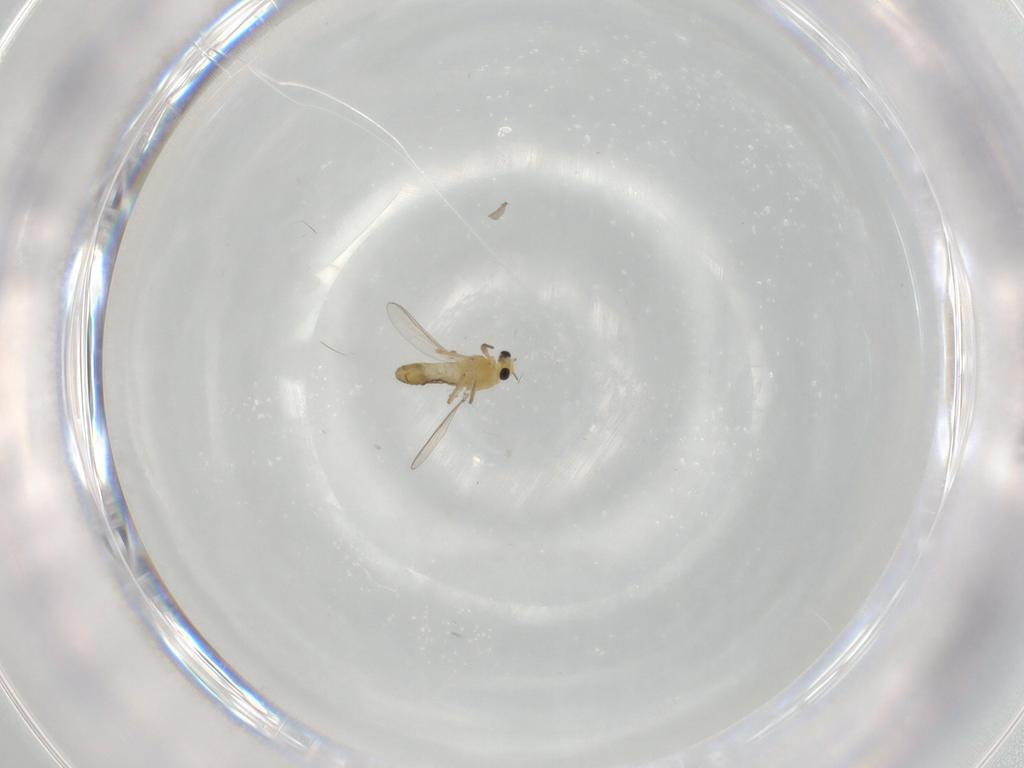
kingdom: Animalia
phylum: Arthropoda
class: Insecta
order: Diptera
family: Chironomidae
